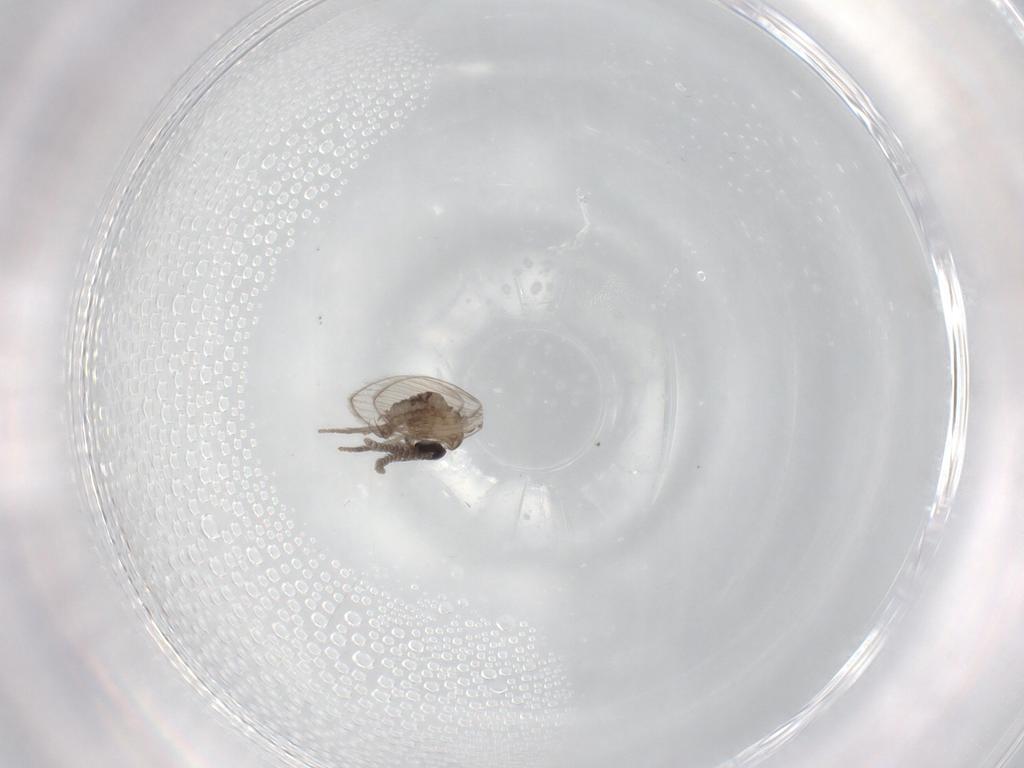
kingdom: Animalia
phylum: Arthropoda
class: Insecta
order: Diptera
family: Psychodidae
